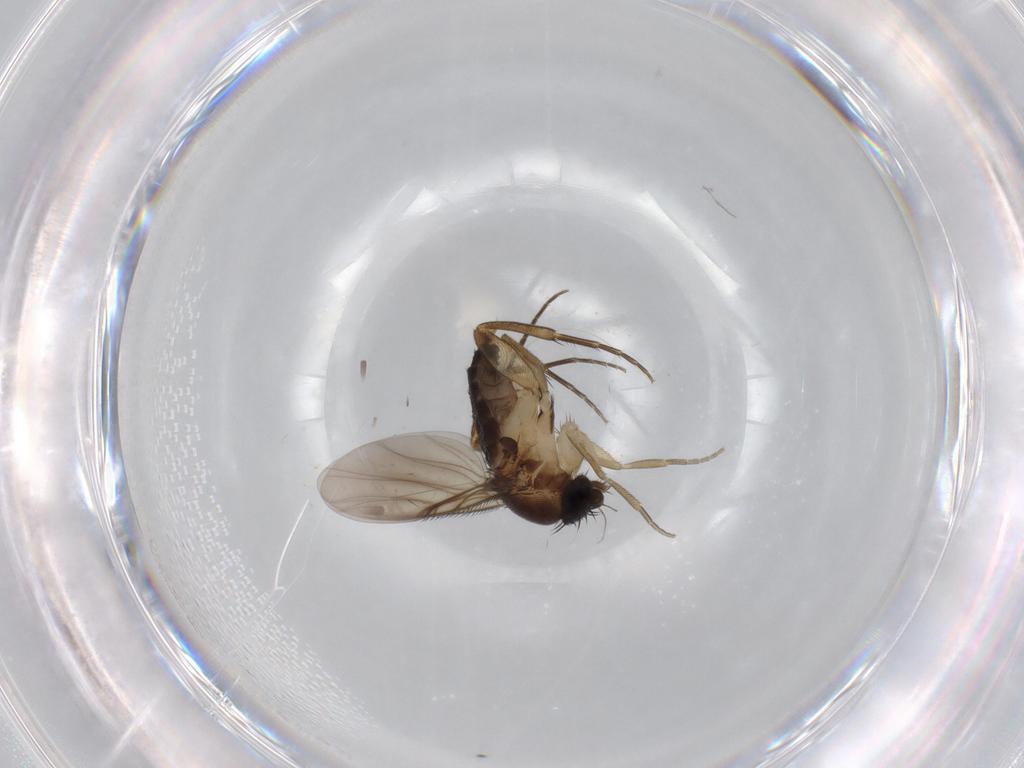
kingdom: Animalia
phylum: Arthropoda
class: Insecta
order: Diptera
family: Phoridae
